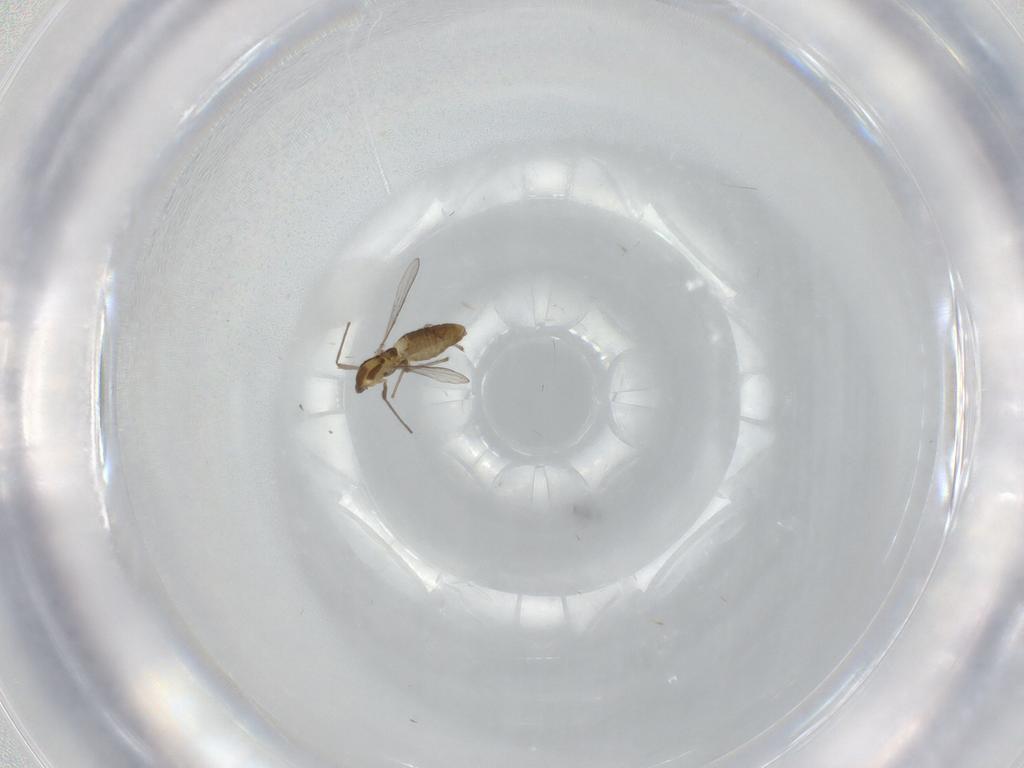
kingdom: Animalia
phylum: Arthropoda
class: Insecta
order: Diptera
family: Chironomidae
